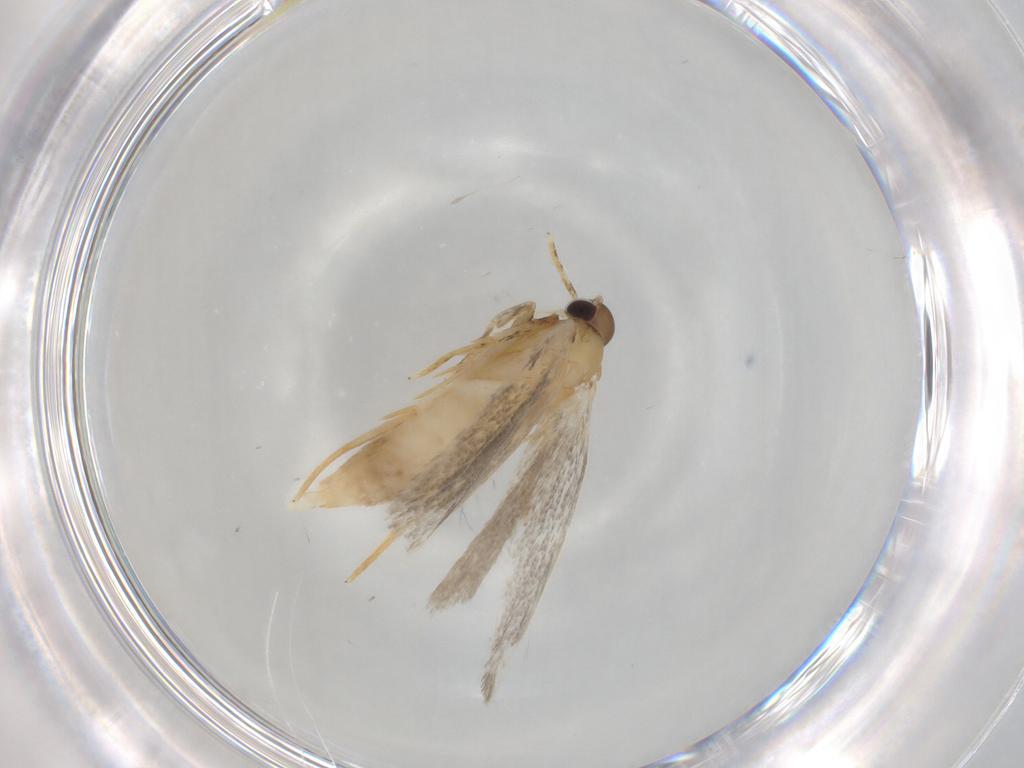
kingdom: Animalia
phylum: Arthropoda
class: Insecta
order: Lepidoptera
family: Autostichidae
